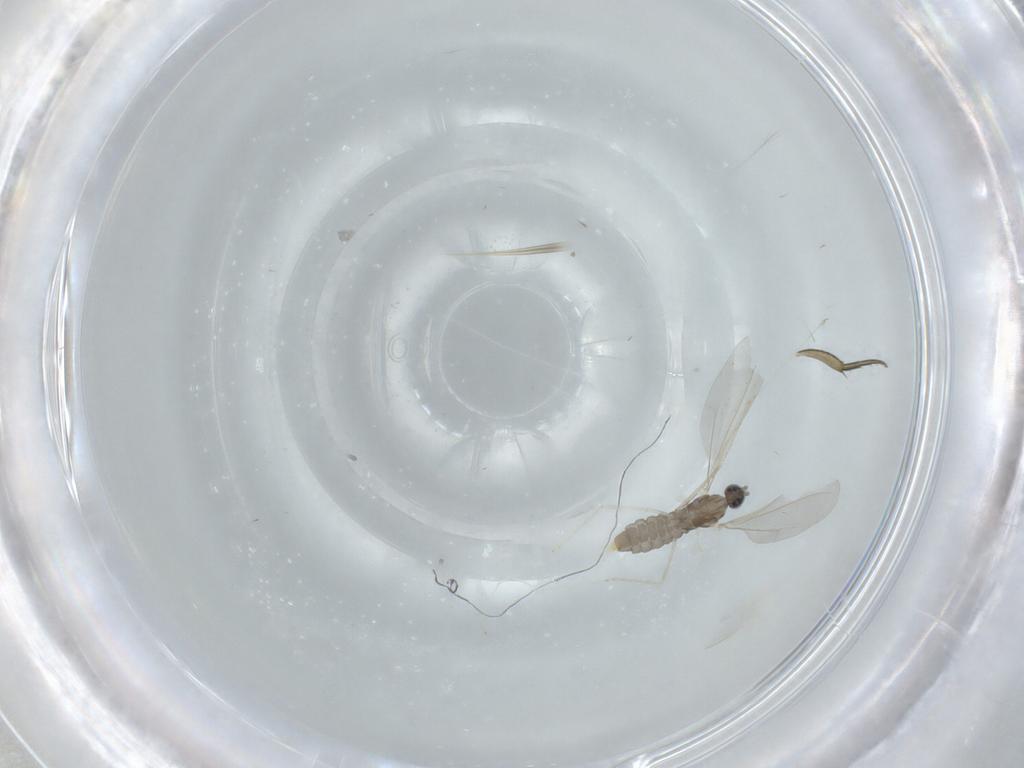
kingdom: Animalia
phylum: Arthropoda
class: Insecta
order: Diptera
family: Cecidomyiidae
